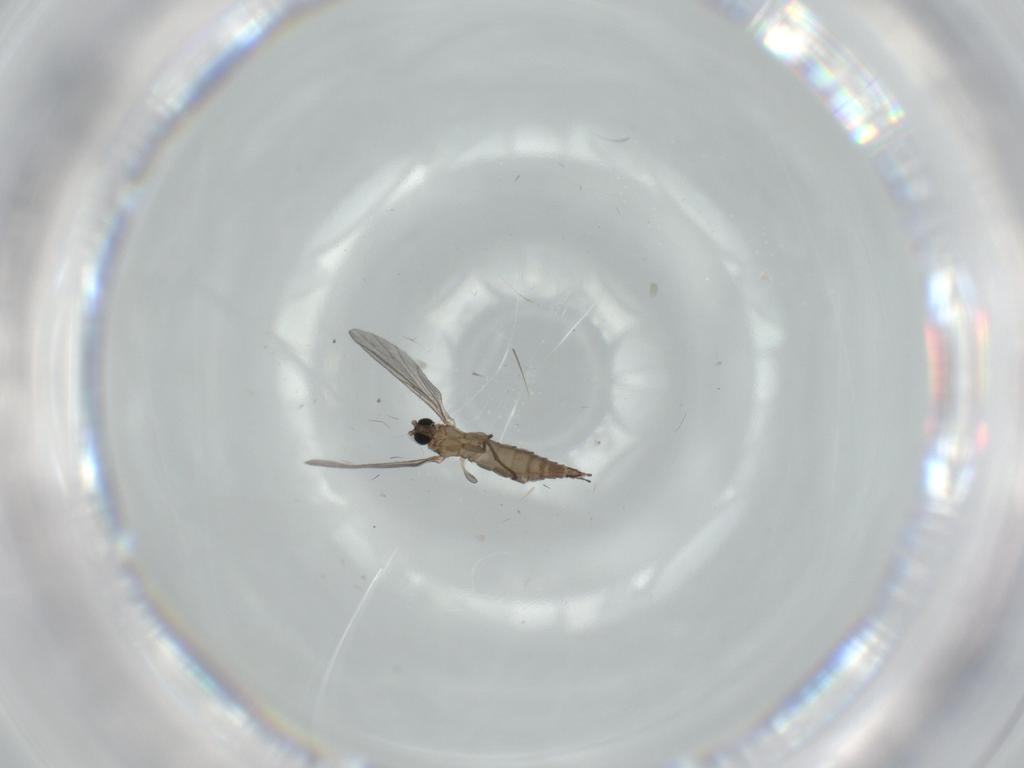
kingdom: Animalia
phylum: Arthropoda
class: Insecta
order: Diptera
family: Sciaridae
